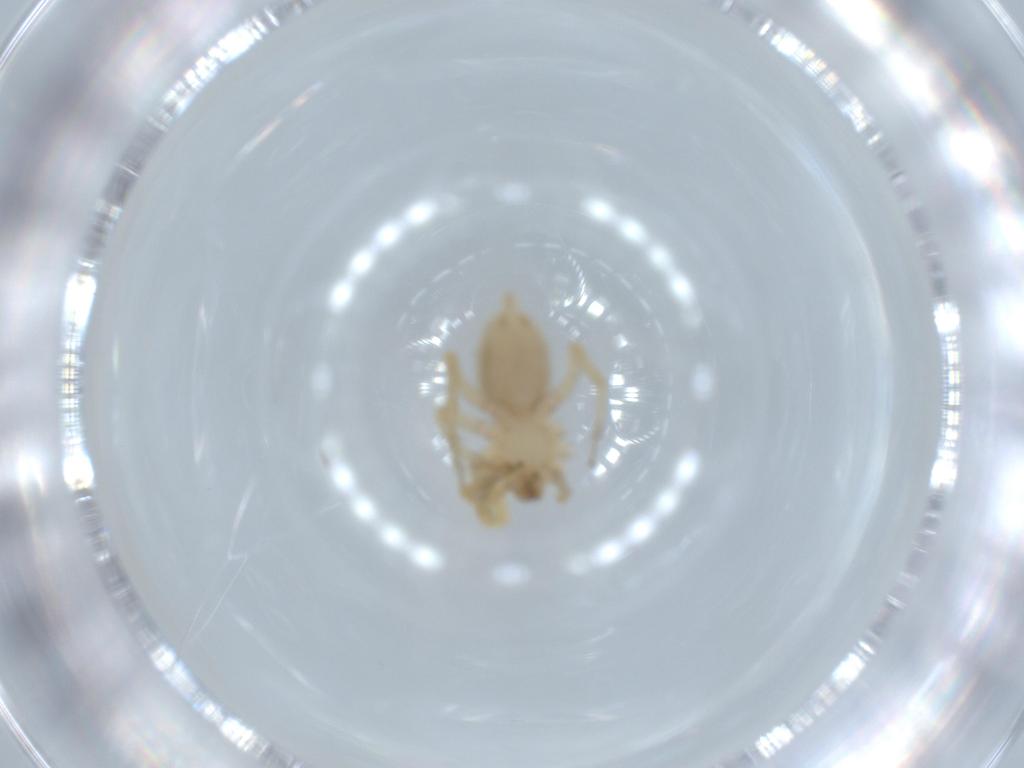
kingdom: Animalia
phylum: Arthropoda
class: Arachnida
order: Araneae
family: Oonopidae
